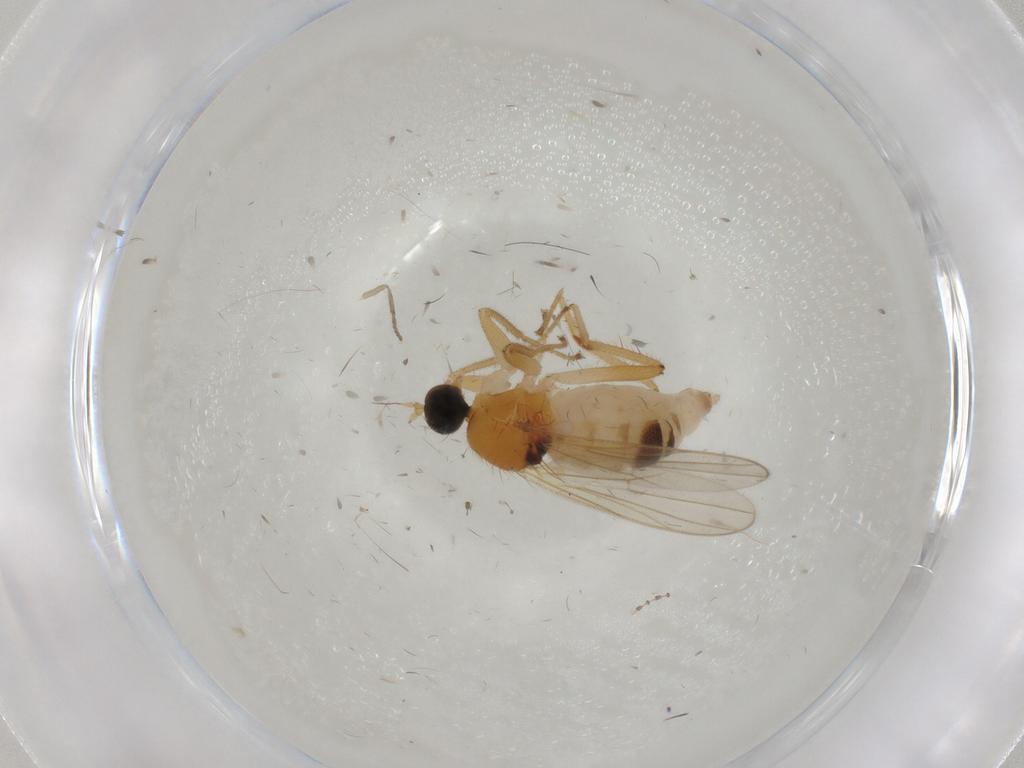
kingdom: Animalia
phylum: Arthropoda
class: Insecta
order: Diptera
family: Hybotidae
